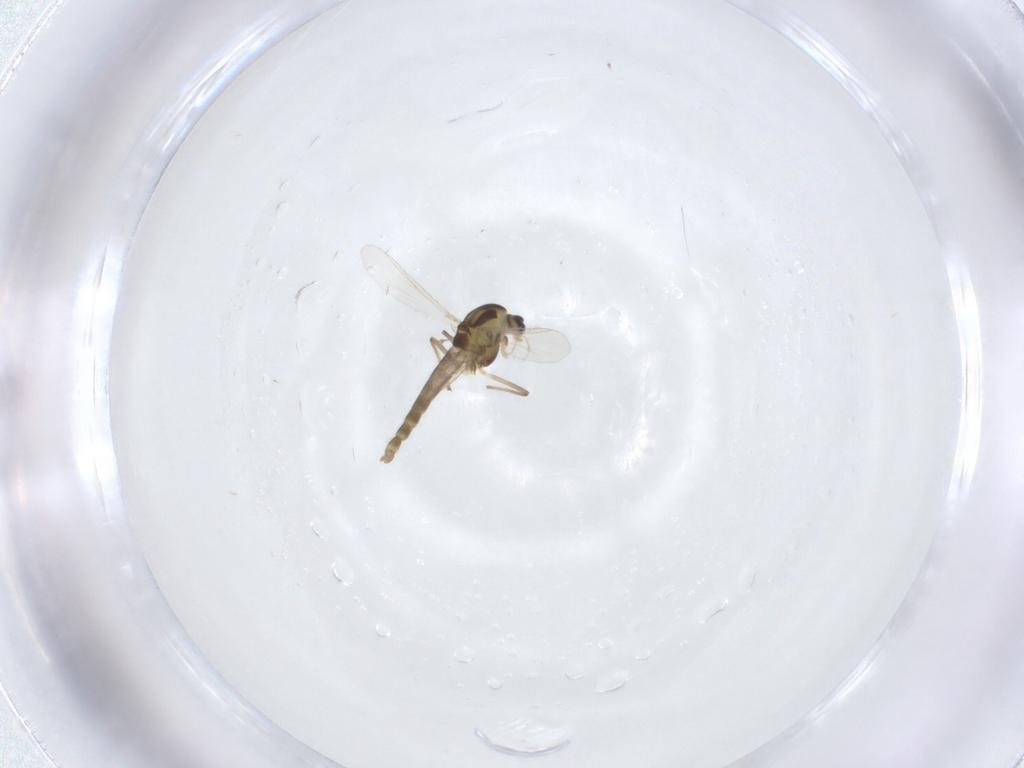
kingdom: Animalia
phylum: Arthropoda
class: Insecta
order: Diptera
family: Chironomidae
